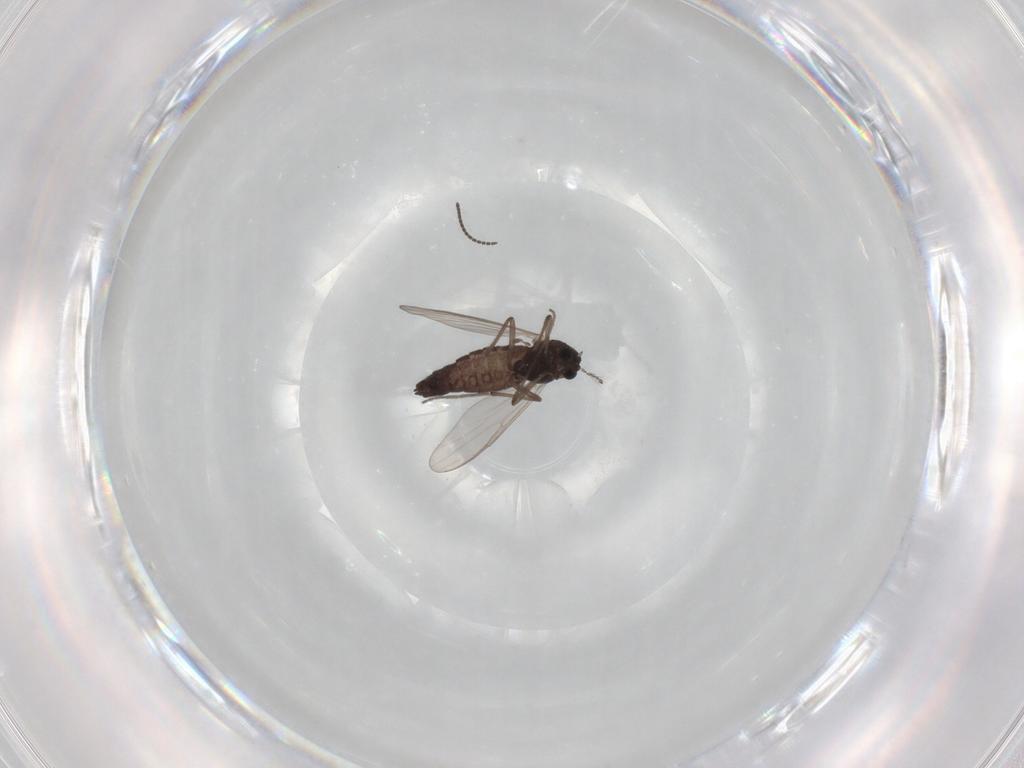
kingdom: Animalia
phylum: Arthropoda
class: Insecta
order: Diptera
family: Chironomidae
